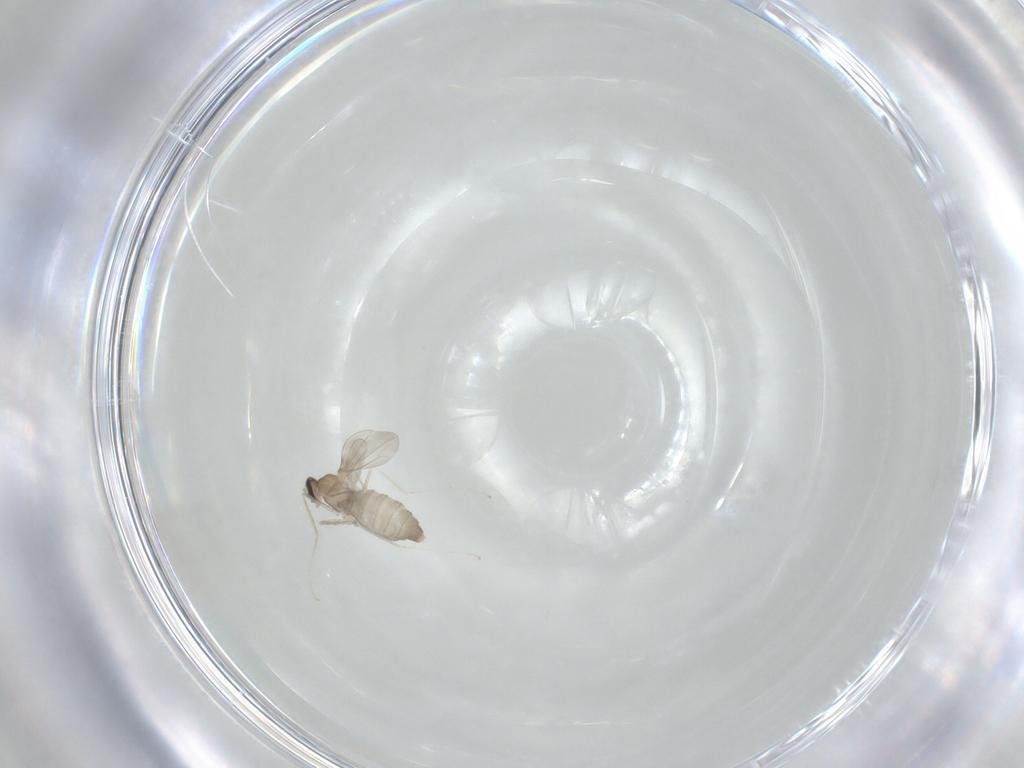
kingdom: Animalia
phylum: Arthropoda
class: Insecta
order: Diptera
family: Cecidomyiidae
